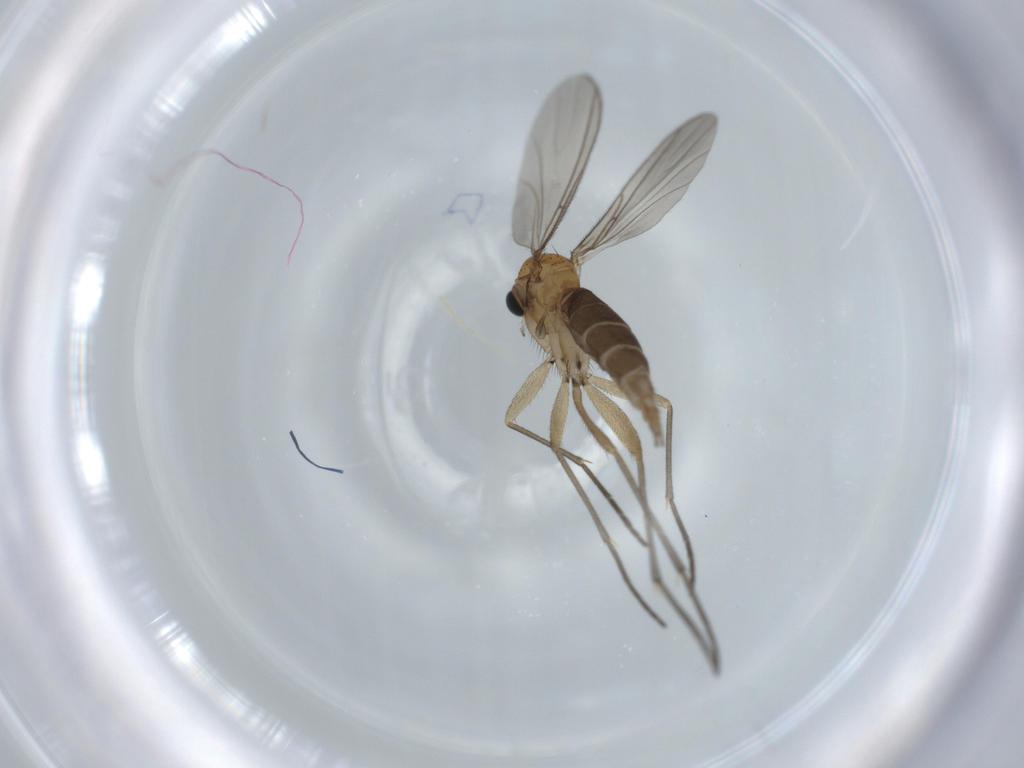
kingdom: Animalia
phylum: Arthropoda
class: Insecta
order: Diptera
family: Sciaridae
